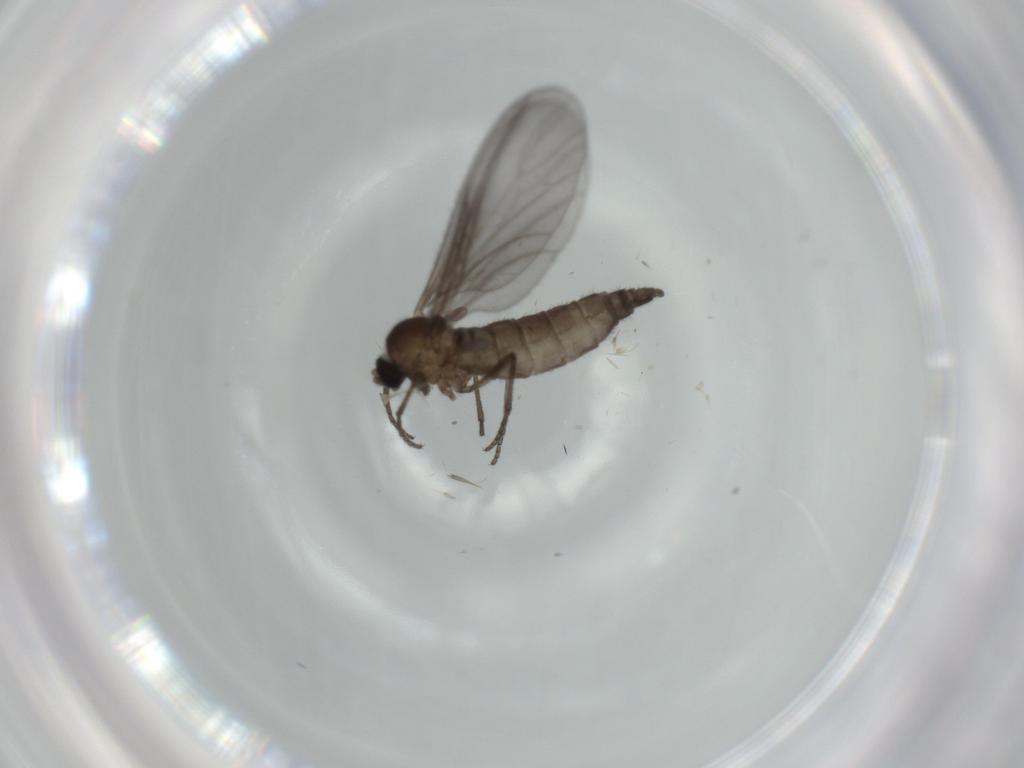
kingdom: Animalia
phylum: Arthropoda
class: Insecta
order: Diptera
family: Sciaridae
